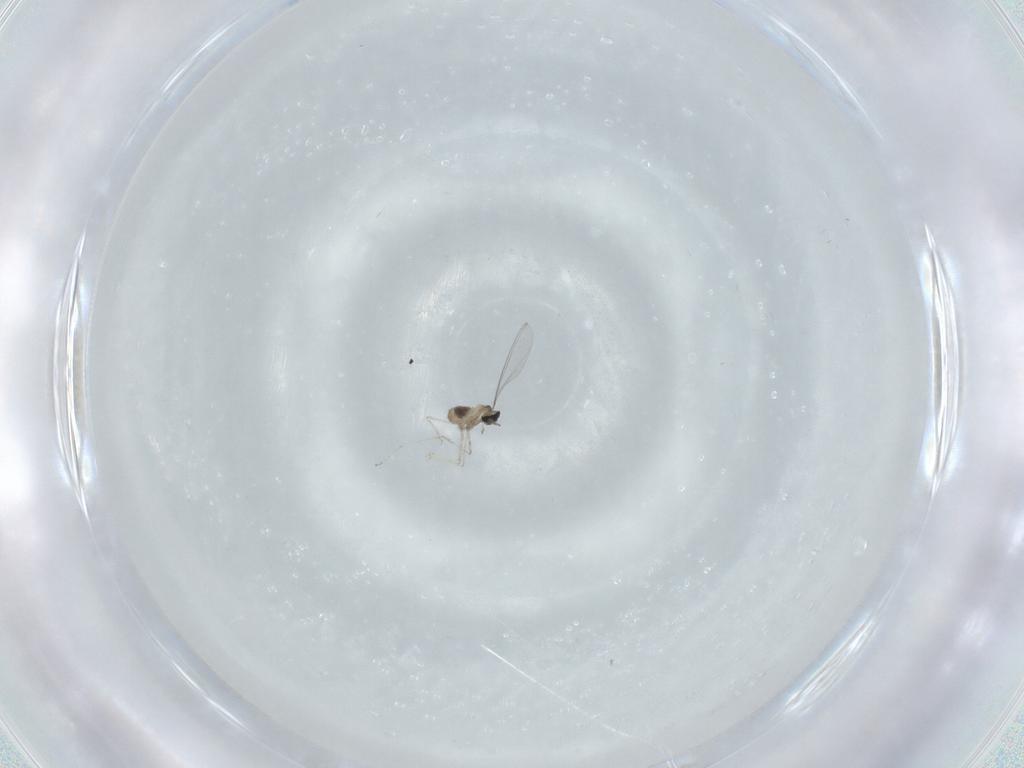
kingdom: Animalia
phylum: Arthropoda
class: Insecta
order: Diptera
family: Cecidomyiidae
